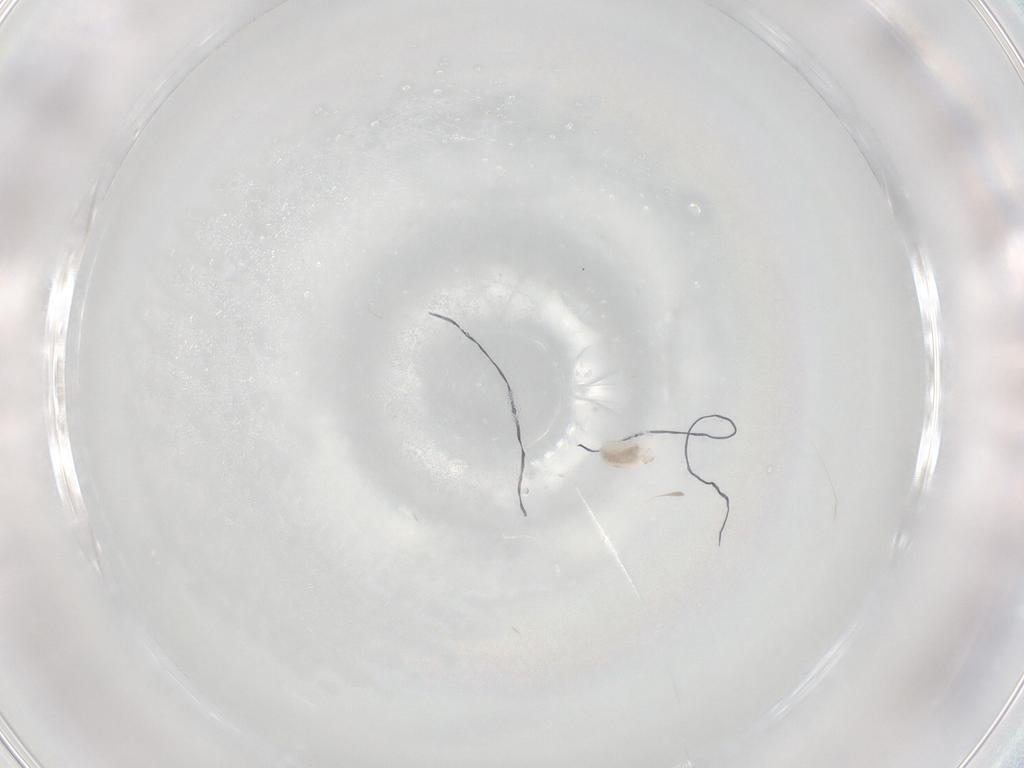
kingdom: Animalia
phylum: Arthropoda
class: Arachnida
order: Trombidiformes
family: Eupodidae
